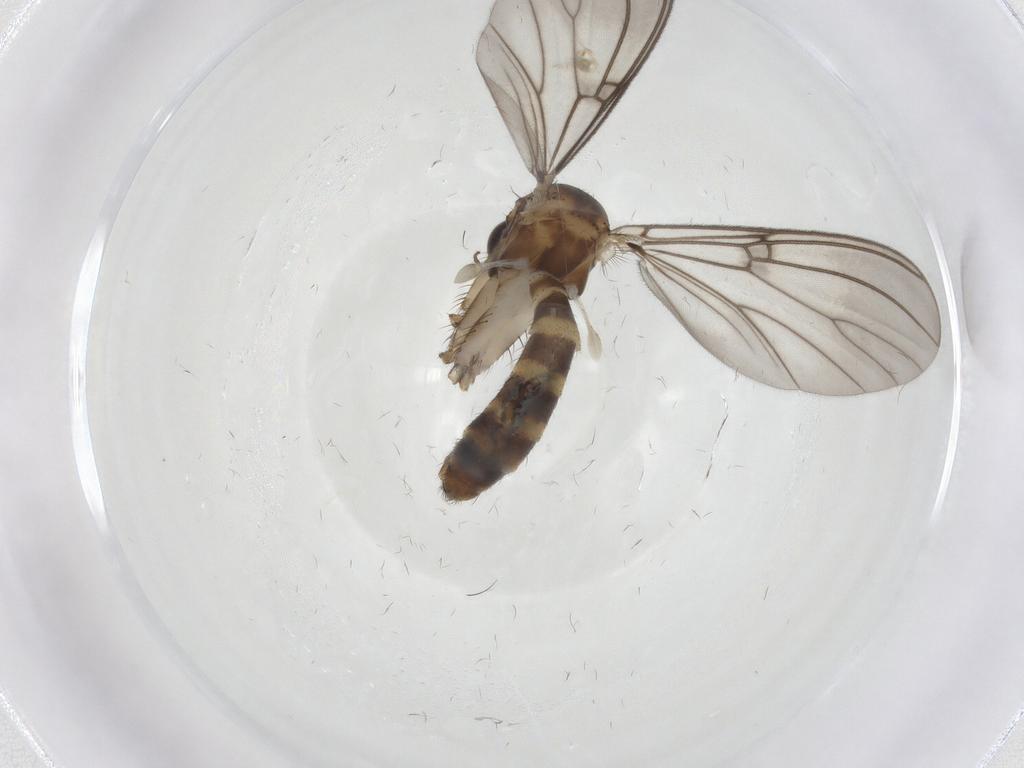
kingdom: Animalia
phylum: Arthropoda
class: Insecta
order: Diptera
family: Mycetophilidae
